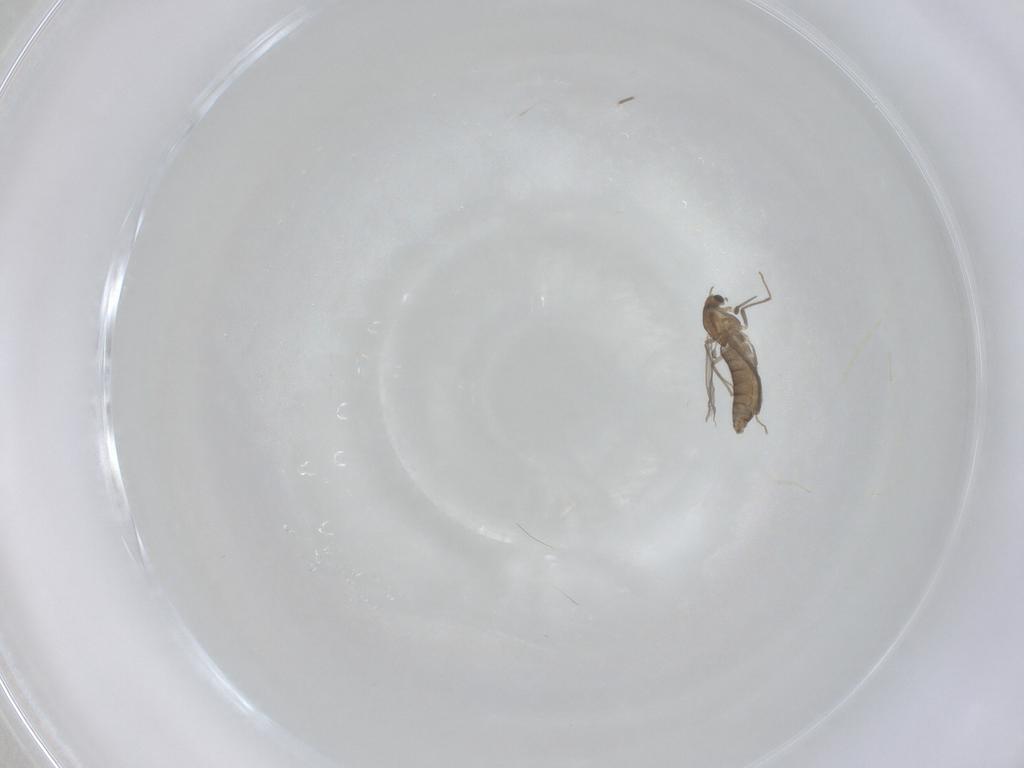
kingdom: Animalia
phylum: Arthropoda
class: Insecta
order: Diptera
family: Chironomidae
